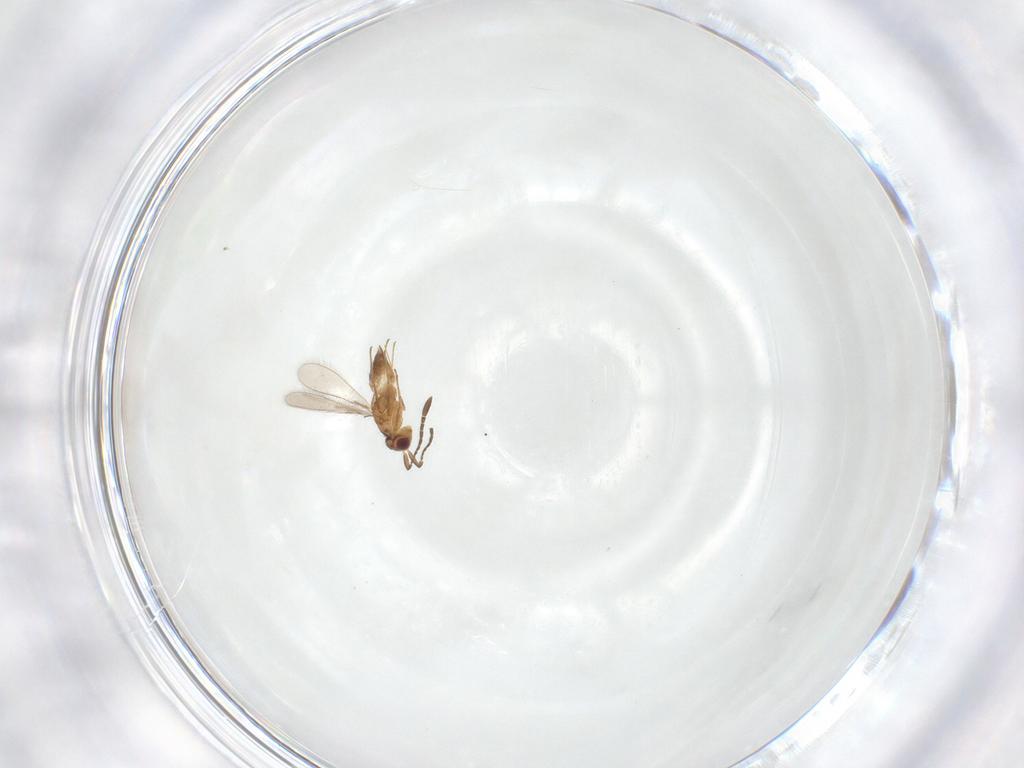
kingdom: Animalia
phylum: Arthropoda
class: Insecta
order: Hymenoptera
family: Mymaridae
